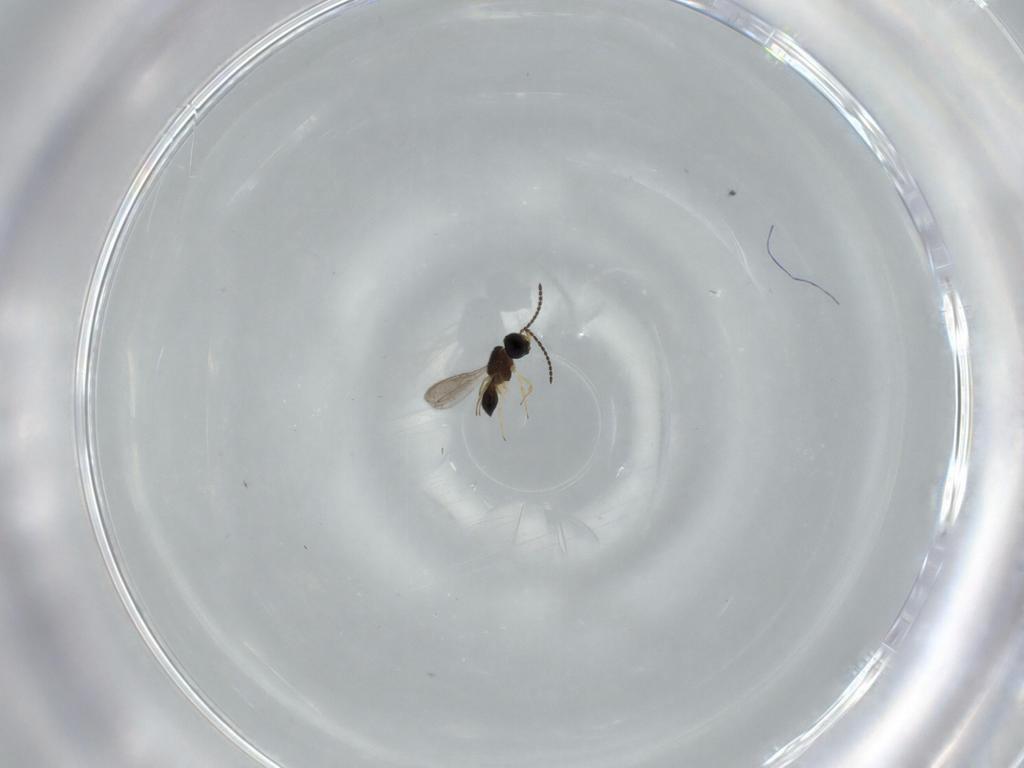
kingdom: Animalia
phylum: Arthropoda
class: Insecta
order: Hymenoptera
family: Scelionidae
